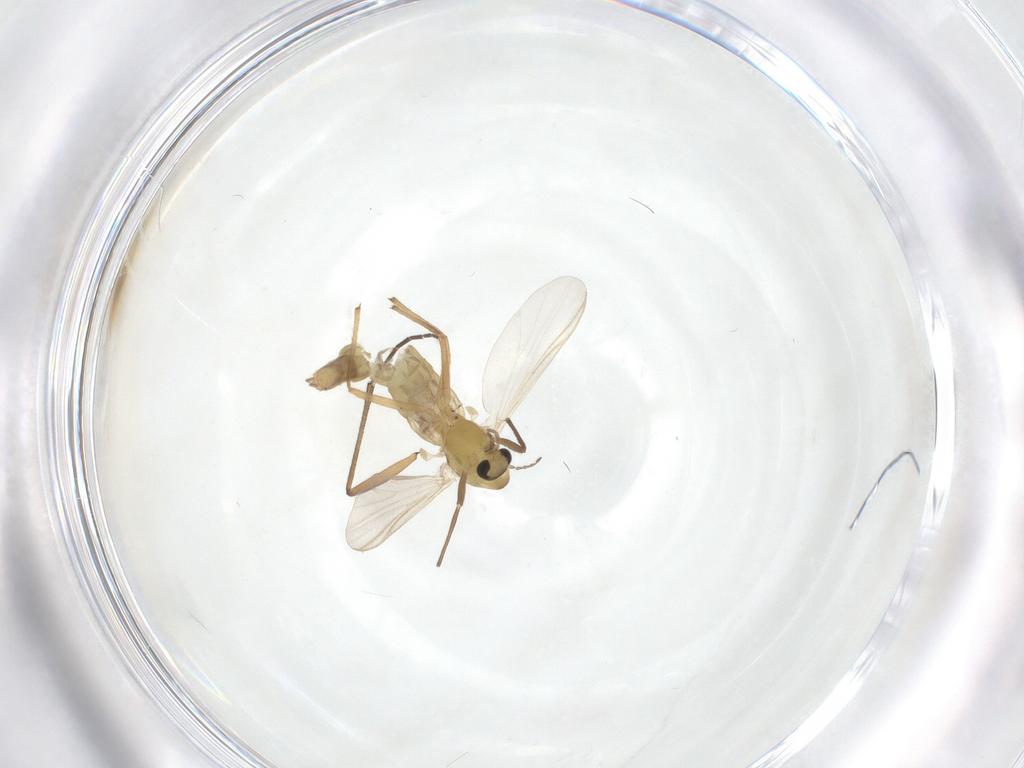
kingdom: Animalia
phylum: Arthropoda
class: Insecta
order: Diptera
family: Chironomidae
